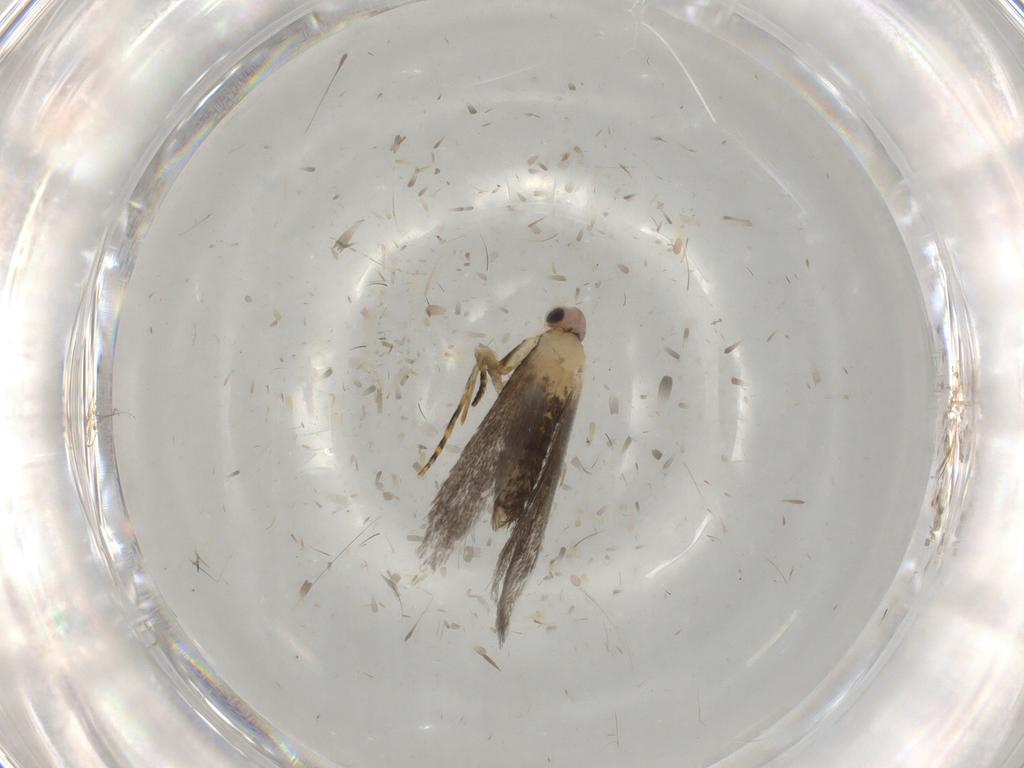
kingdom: Animalia
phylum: Arthropoda
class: Insecta
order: Lepidoptera
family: Tineidae
